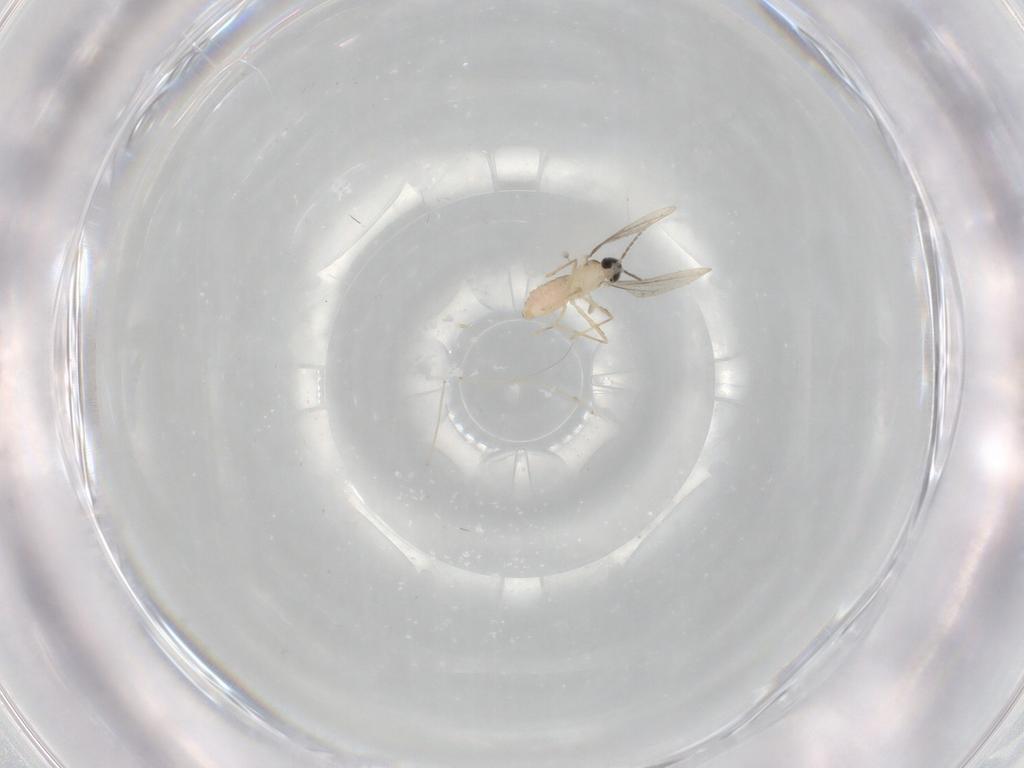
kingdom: Animalia
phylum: Arthropoda
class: Insecta
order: Diptera
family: Cecidomyiidae
